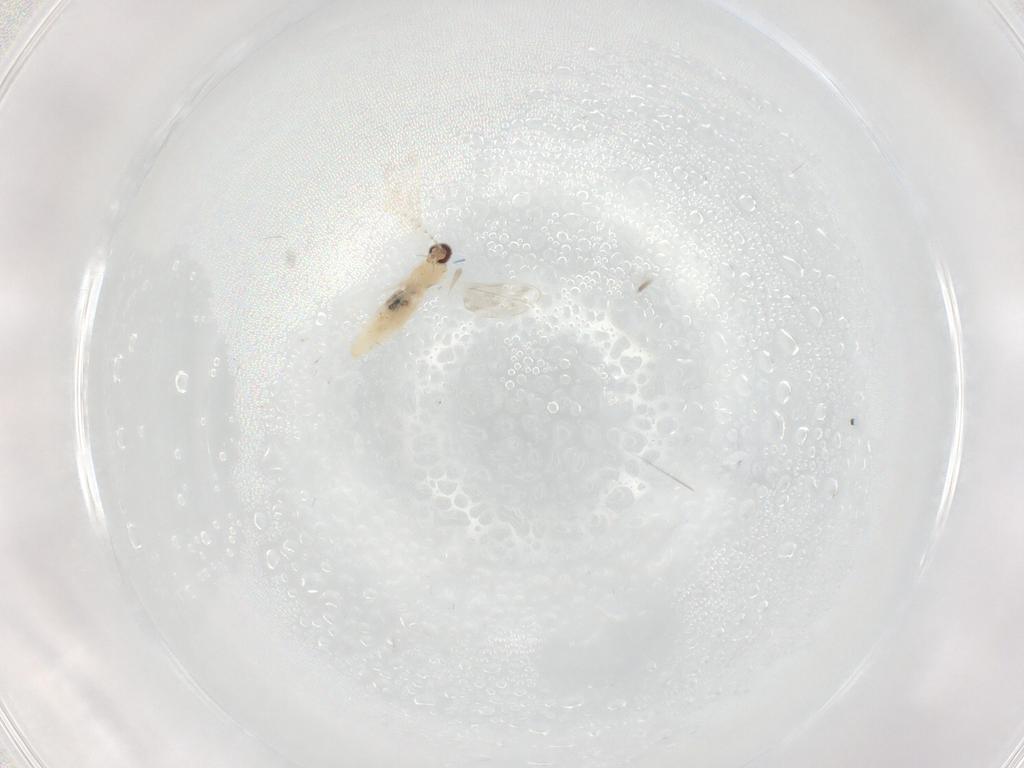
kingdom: Animalia
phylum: Arthropoda
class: Insecta
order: Diptera
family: Cecidomyiidae
